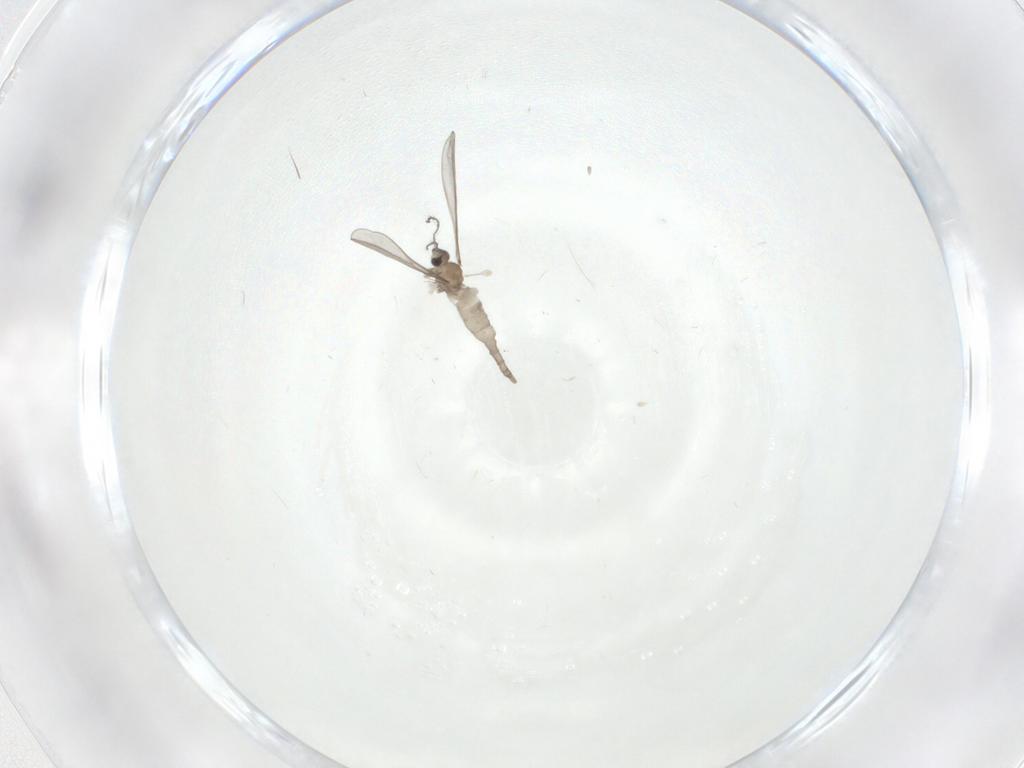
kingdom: Animalia
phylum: Arthropoda
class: Insecta
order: Diptera
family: Cecidomyiidae
